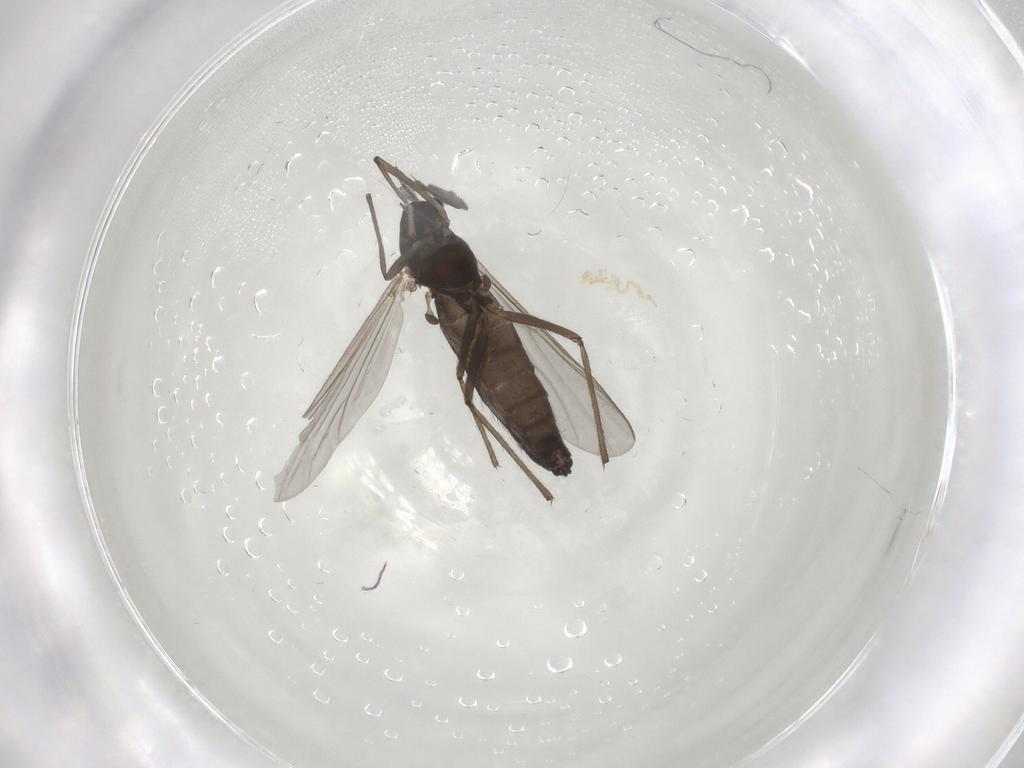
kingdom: Animalia
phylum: Arthropoda
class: Insecta
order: Diptera
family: Chironomidae
